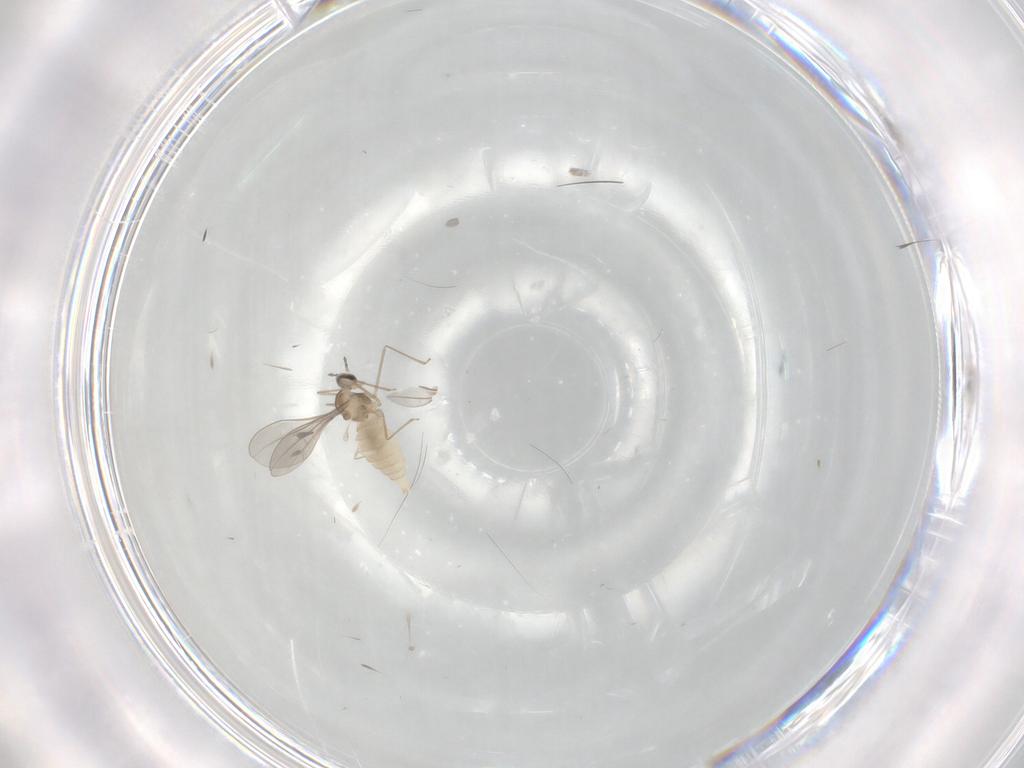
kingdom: Animalia
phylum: Arthropoda
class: Insecta
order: Diptera
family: Cecidomyiidae
